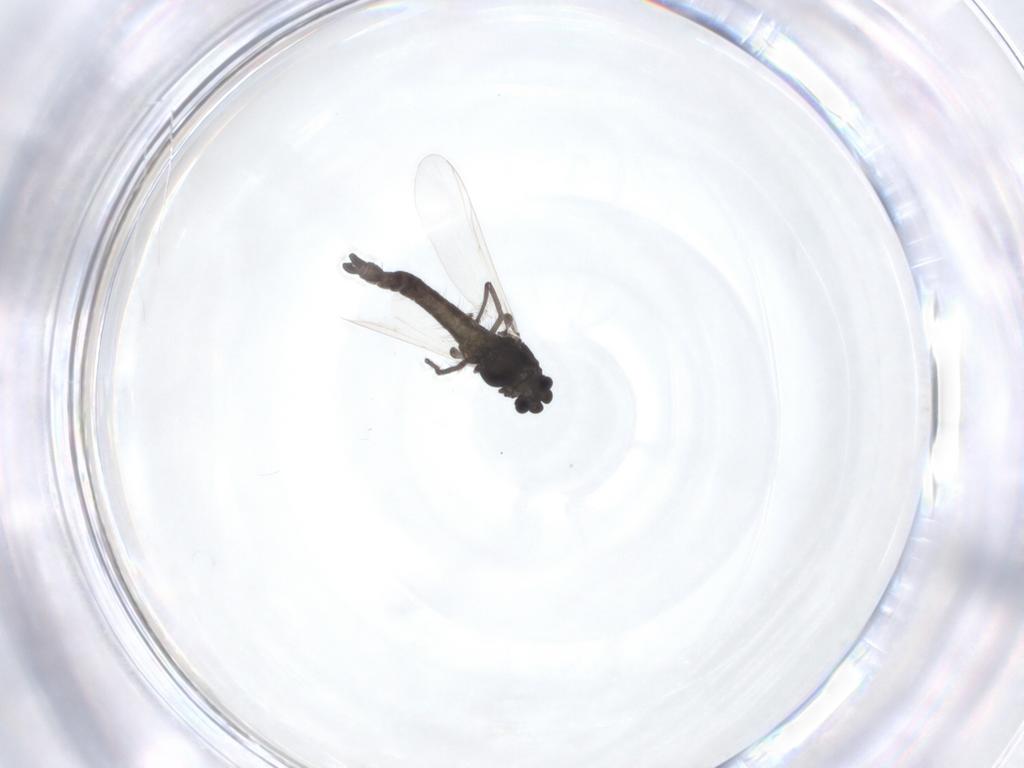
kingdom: Animalia
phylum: Arthropoda
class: Insecta
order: Diptera
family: Chironomidae
